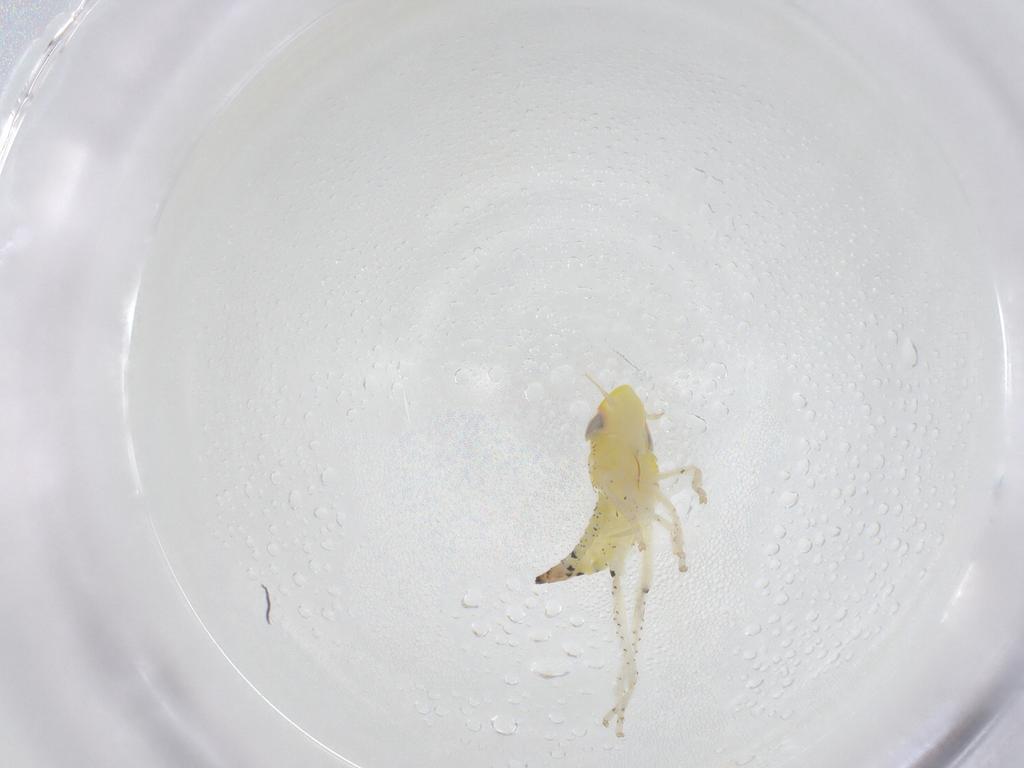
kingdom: Animalia
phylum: Arthropoda
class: Insecta
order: Hemiptera
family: Cicadellidae
